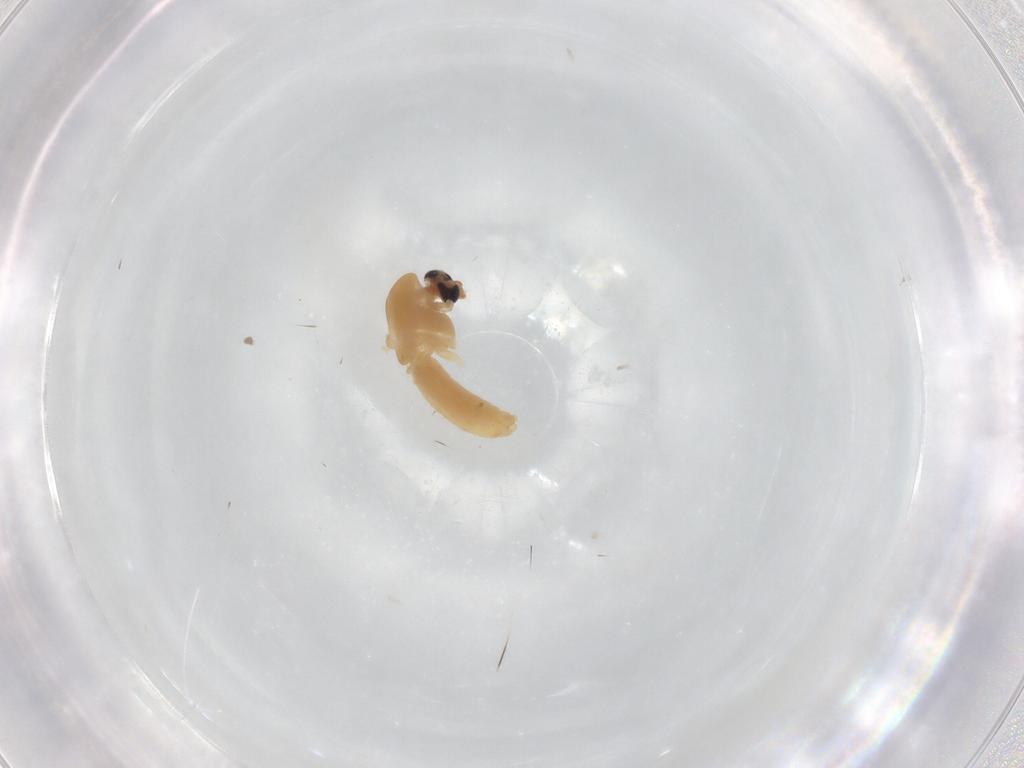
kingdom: Animalia
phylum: Arthropoda
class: Insecta
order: Diptera
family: Chironomidae
